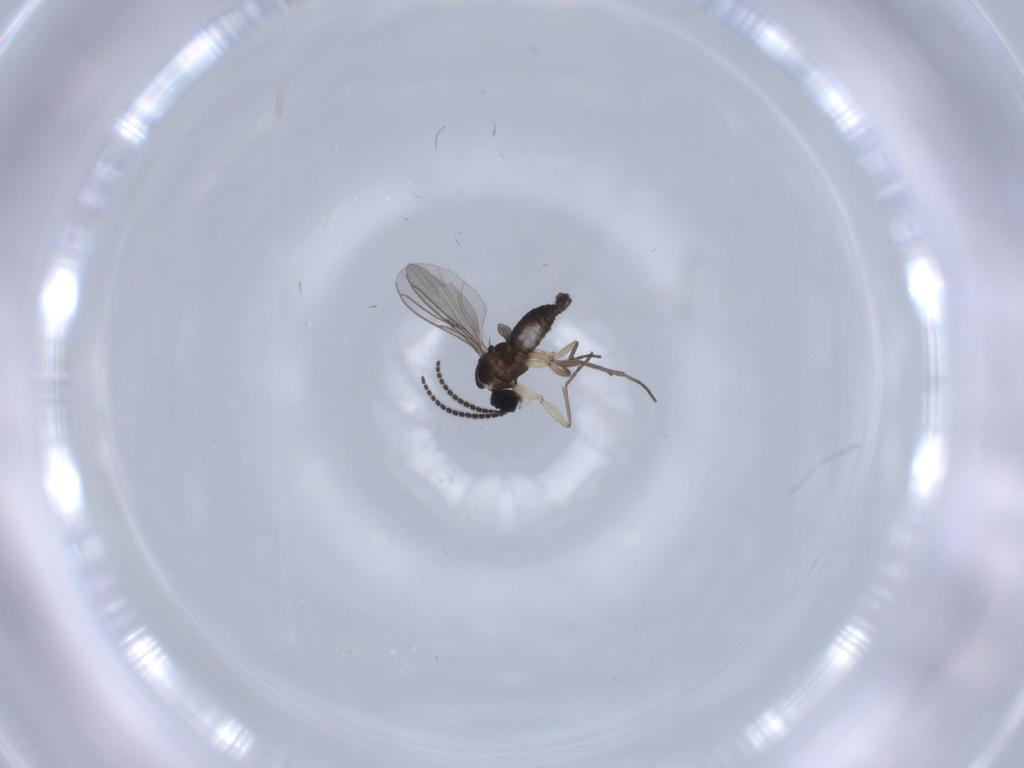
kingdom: Animalia
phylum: Arthropoda
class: Insecta
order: Diptera
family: Sciaridae
